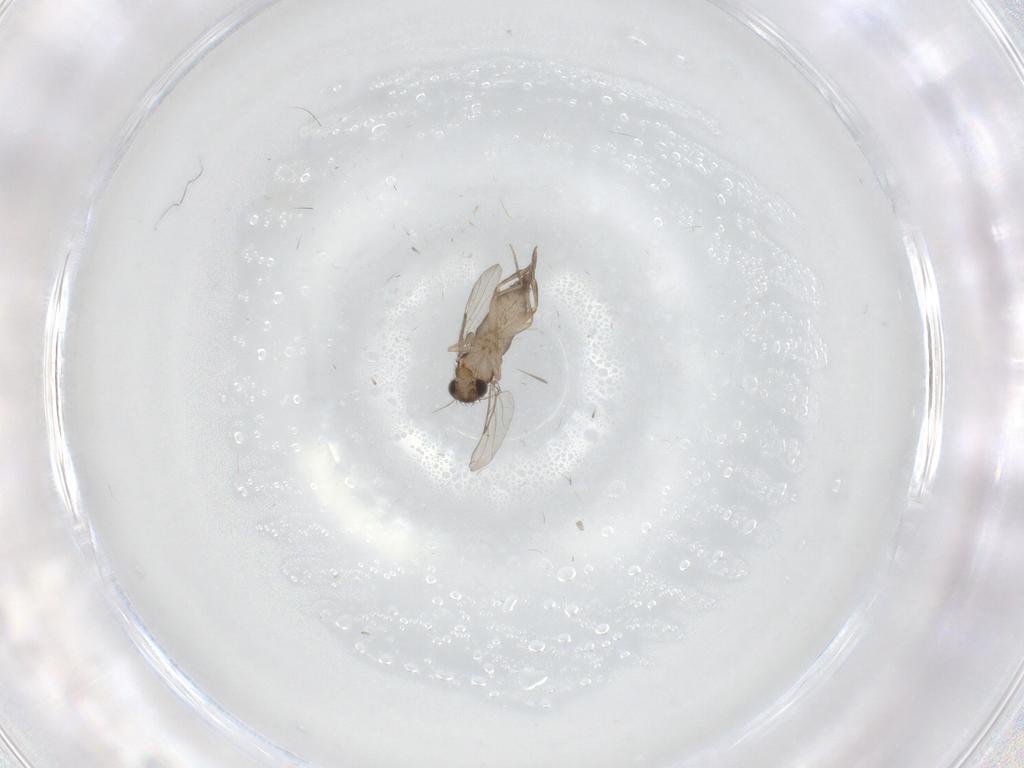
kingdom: Animalia
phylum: Arthropoda
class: Insecta
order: Diptera
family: Phoridae
